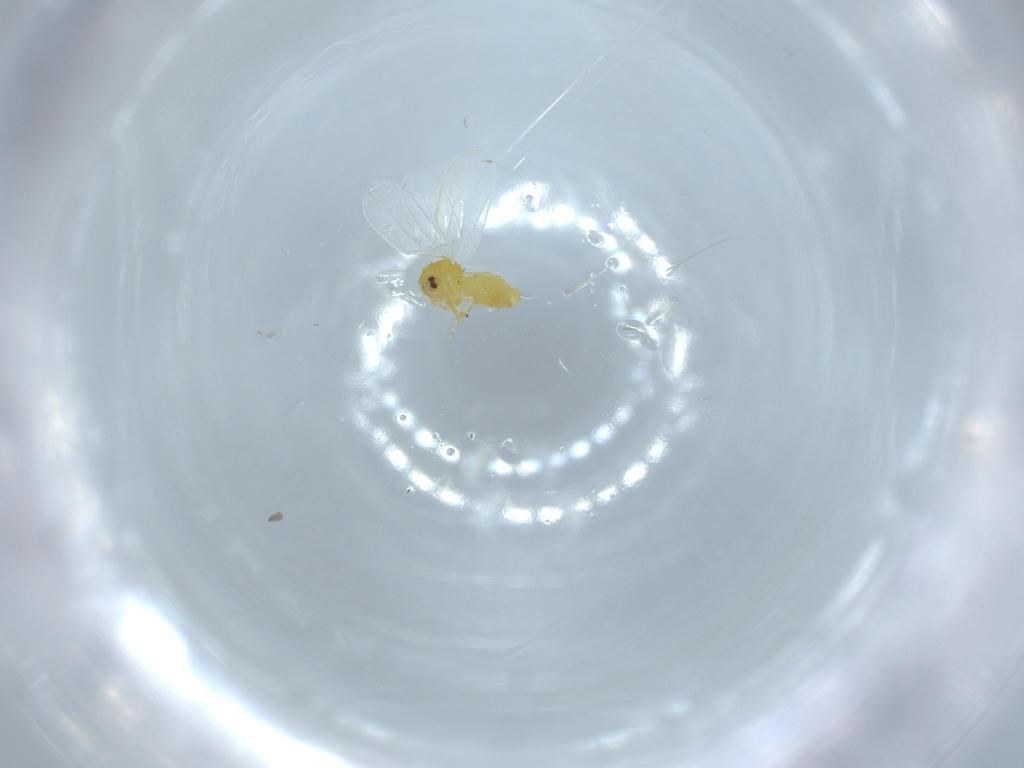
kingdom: Animalia
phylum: Arthropoda
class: Insecta
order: Hemiptera
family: Aleyrodidae
